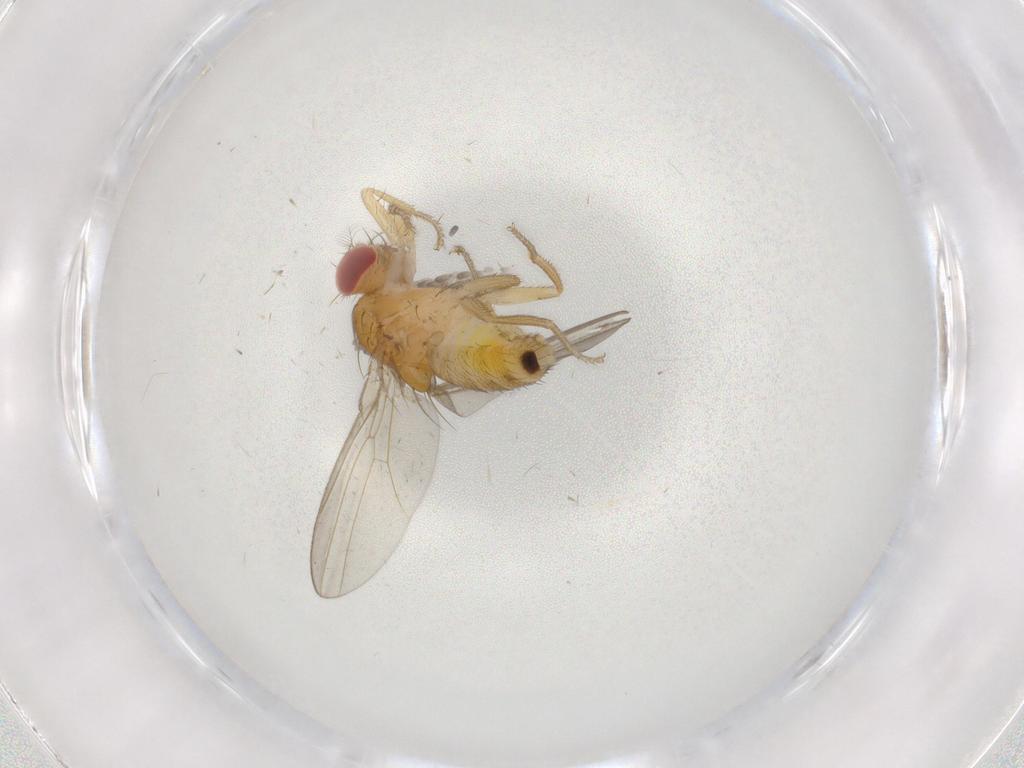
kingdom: Animalia
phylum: Arthropoda
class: Insecta
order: Diptera
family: Drosophilidae
